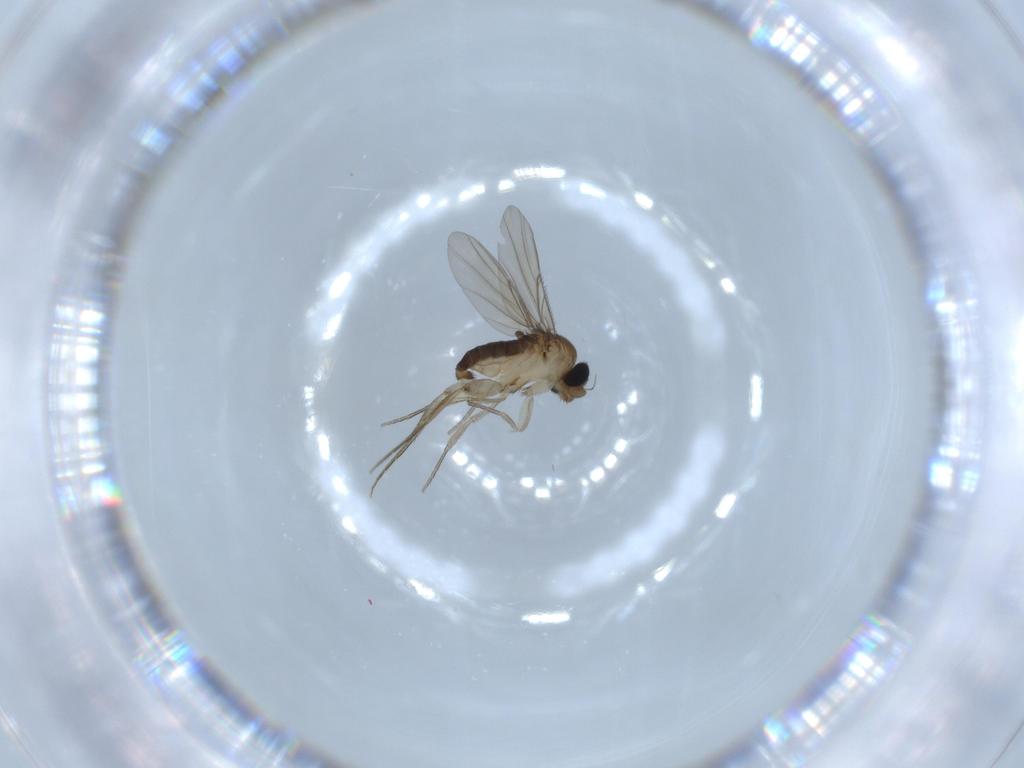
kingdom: Animalia
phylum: Arthropoda
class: Insecta
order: Diptera
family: Phoridae
